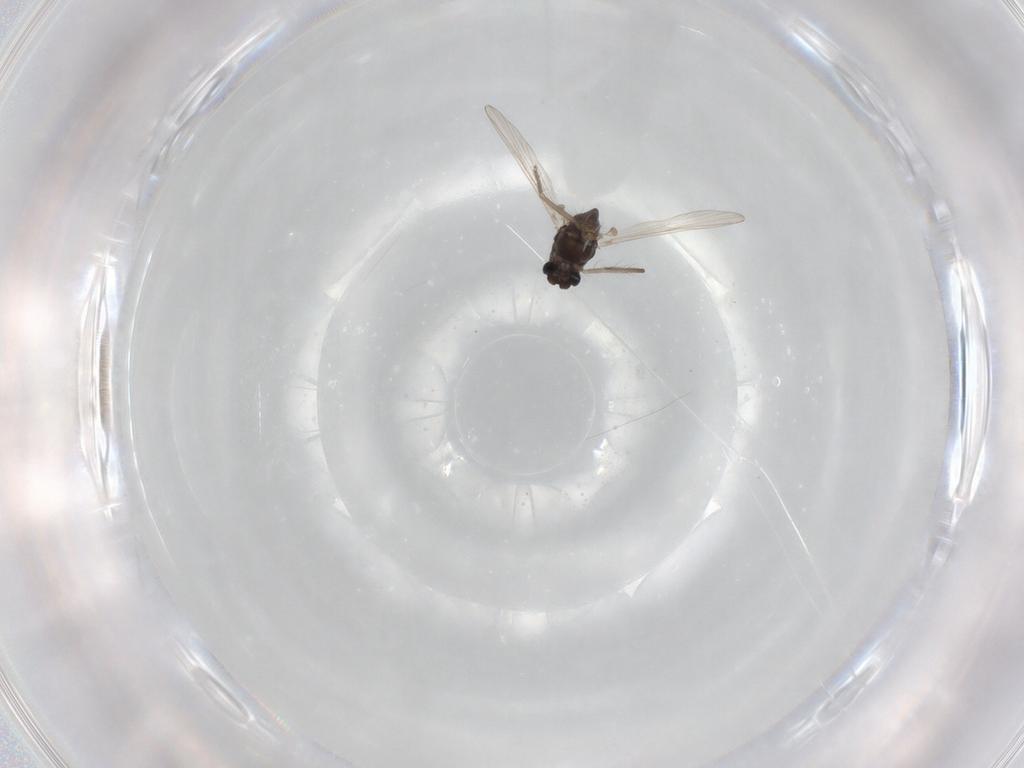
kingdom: Animalia
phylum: Arthropoda
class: Insecta
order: Diptera
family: Chironomidae
